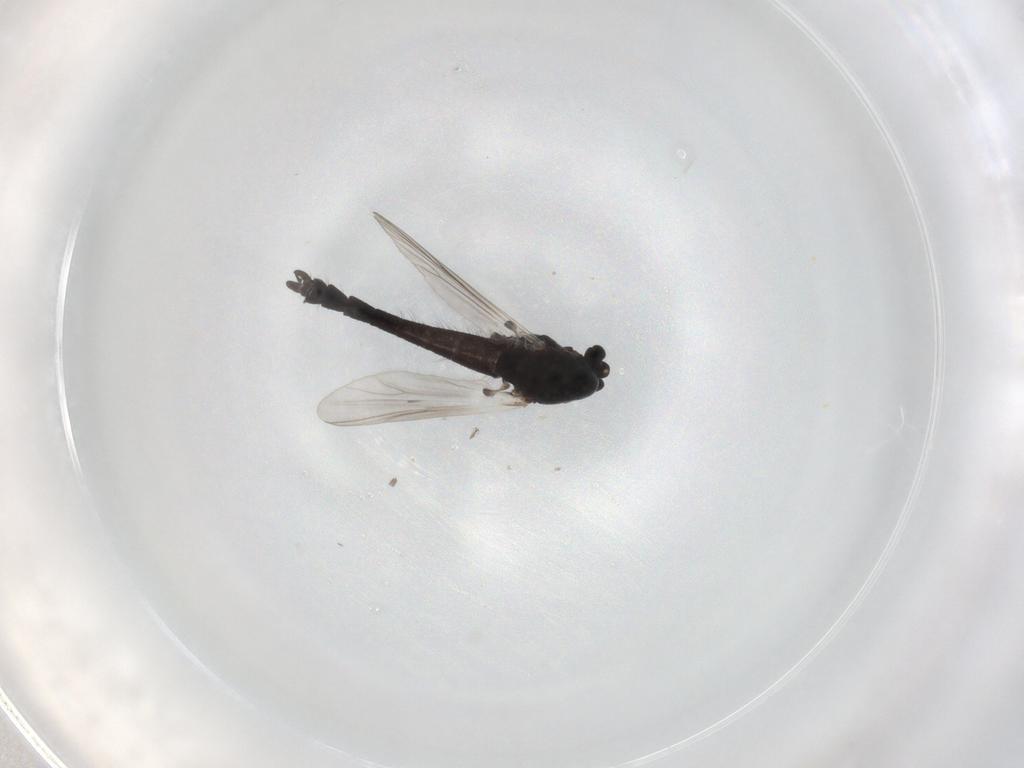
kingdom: Animalia
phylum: Arthropoda
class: Insecta
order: Diptera
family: Chironomidae
